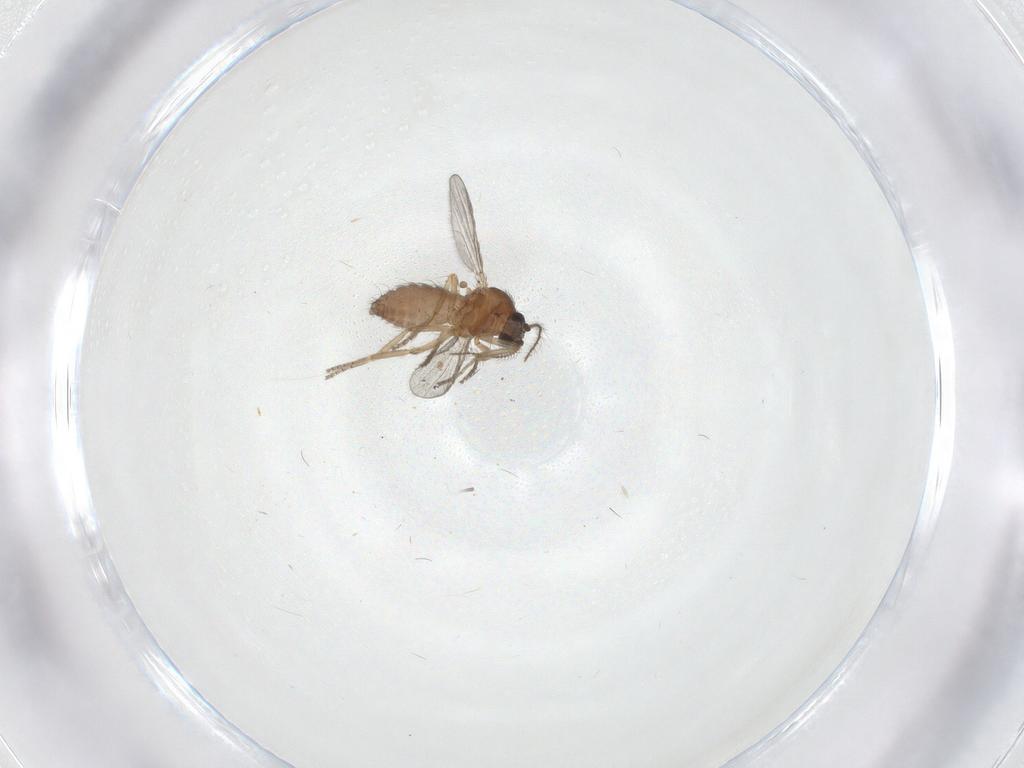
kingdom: Animalia
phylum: Arthropoda
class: Insecta
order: Diptera
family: Ceratopogonidae
